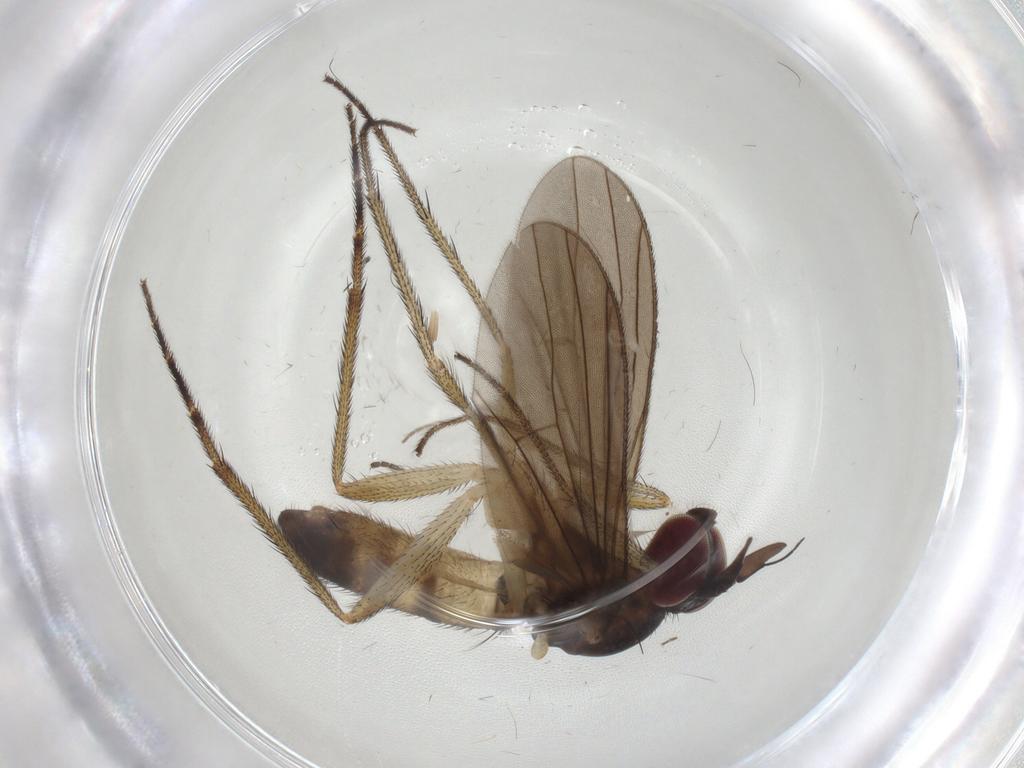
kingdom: Animalia
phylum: Arthropoda
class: Insecta
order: Diptera
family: Dolichopodidae
